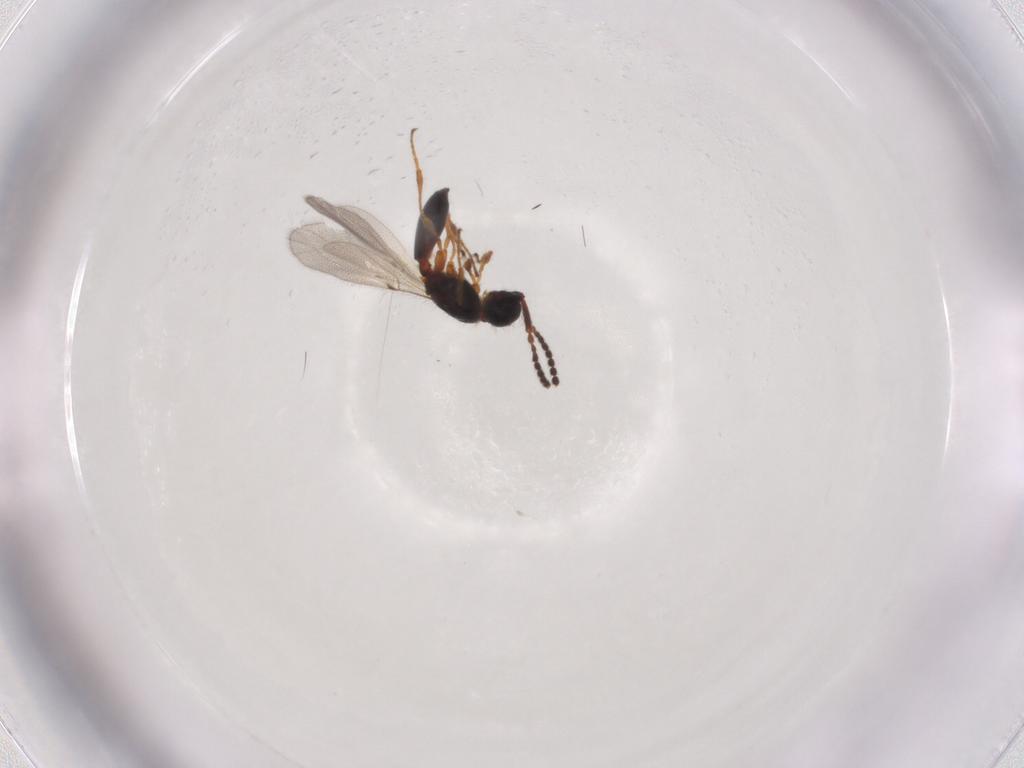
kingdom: Animalia
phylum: Arthropoda
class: Insecta
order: Hymenoptera
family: Diapriidae
